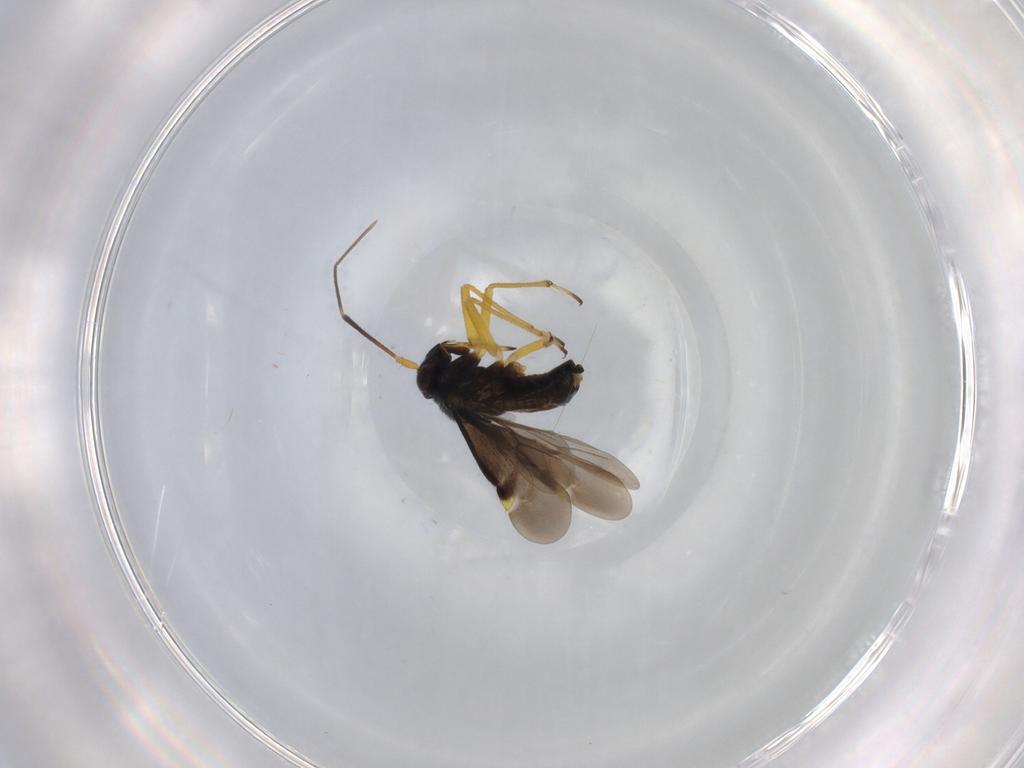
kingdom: Animalia
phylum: Arthropoda
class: Insecta
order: Hemiptera
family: Miridae
